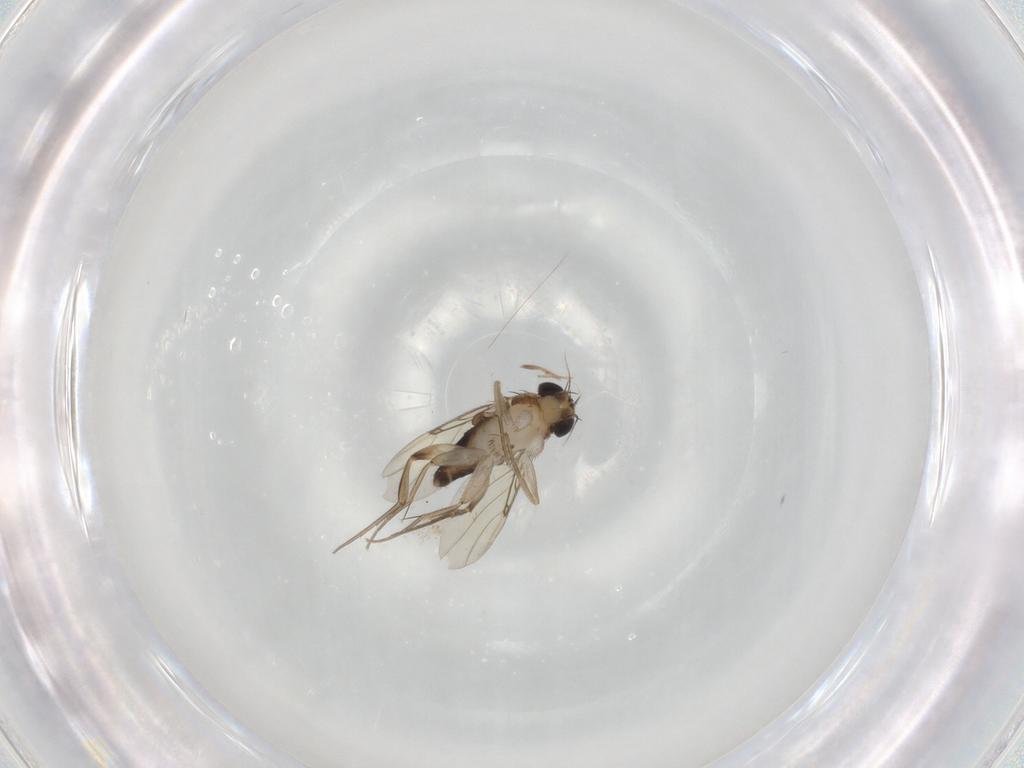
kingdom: Animalia
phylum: Arthropoda
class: Insecta
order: Diptera
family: Phoridae
